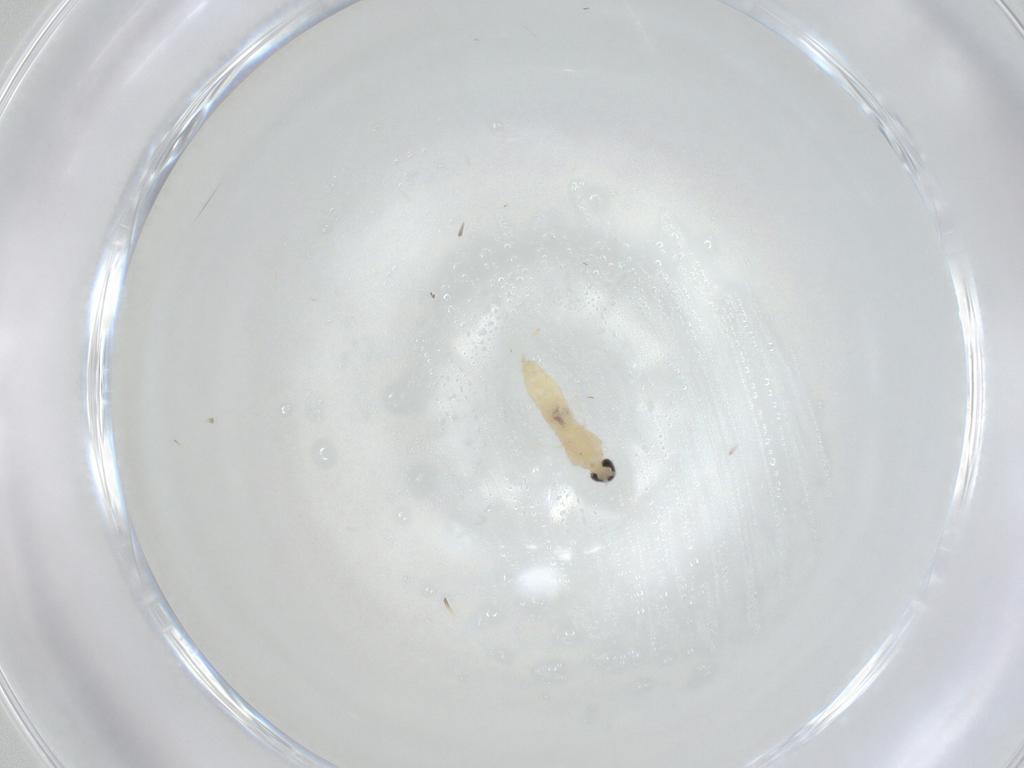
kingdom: Animalia
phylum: Arthropoda
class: Insecta
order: Diptera
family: Cecidomyiidae
